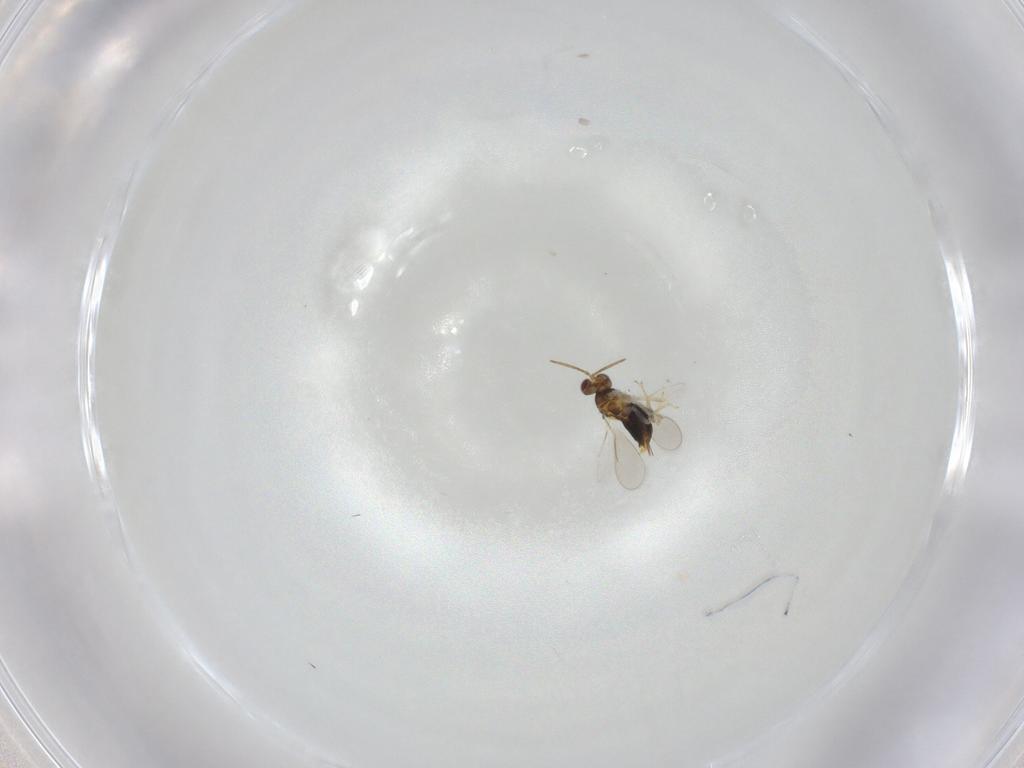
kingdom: Animalia
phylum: Arthropoda
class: Insecta
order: Hymenoptera
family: Aphelinidae
